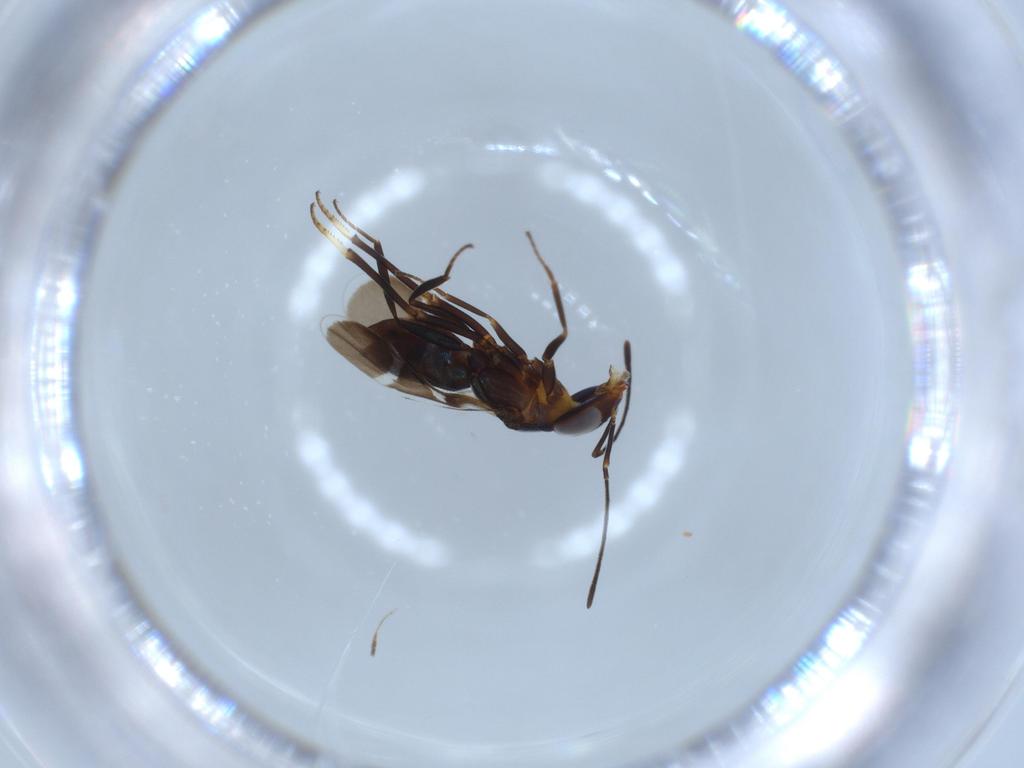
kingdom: Animalia
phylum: Arthropoda
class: Insecta
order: Hymenoptera
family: Encyrtidae
